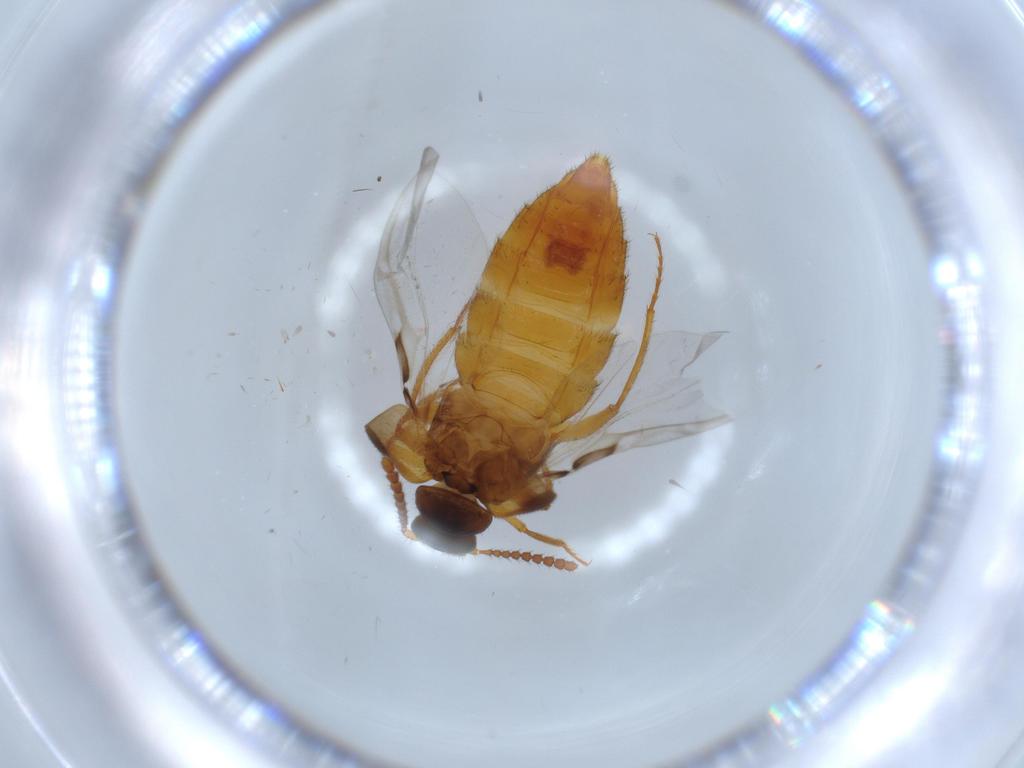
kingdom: Animalia
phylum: Arthropoda
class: Insecta
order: Coleoptera
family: Staphylinidae
